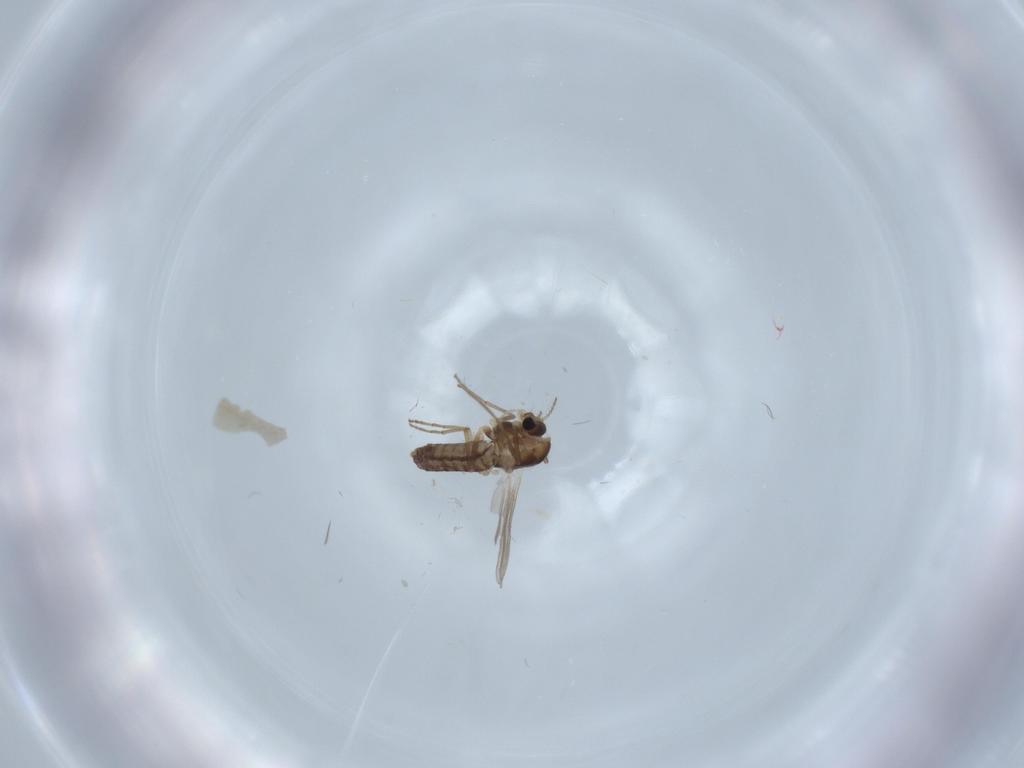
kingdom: Animalia
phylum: Arthropoda
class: Insecta
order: Diptera
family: Chironomidae
